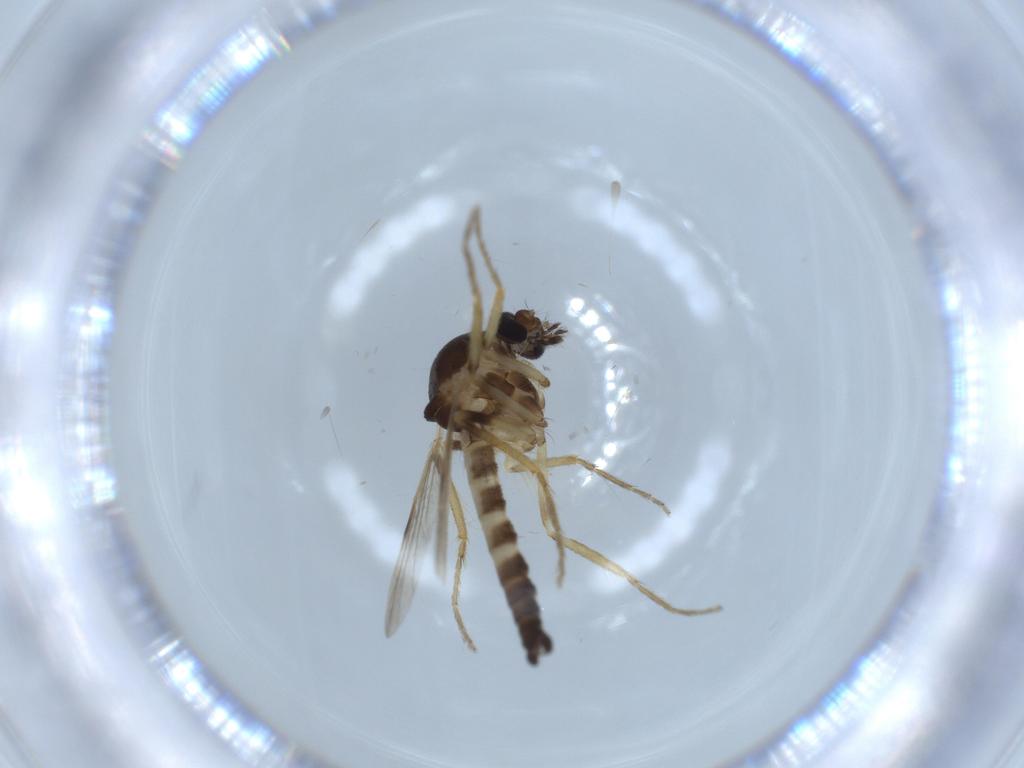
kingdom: Animalia
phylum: Arthropoda
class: Insecta
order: Diptera
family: Cecidomyiidae
